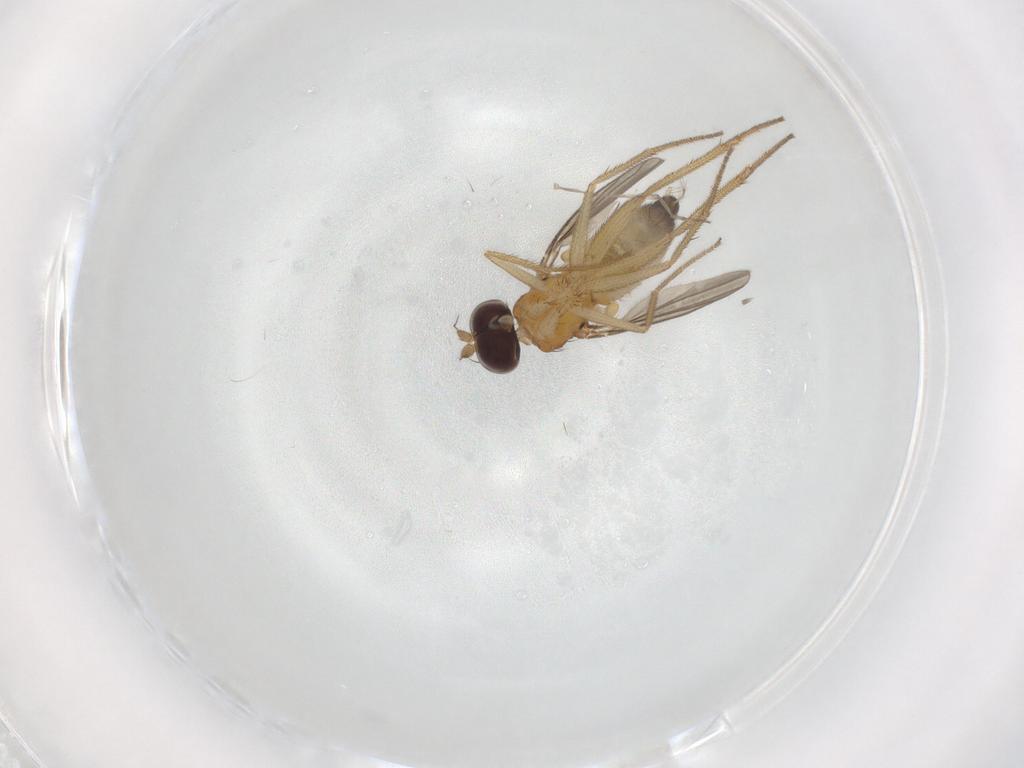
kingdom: Animalia
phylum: Arthropoda
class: Insecta
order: Diptera
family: Dolichopodidae
